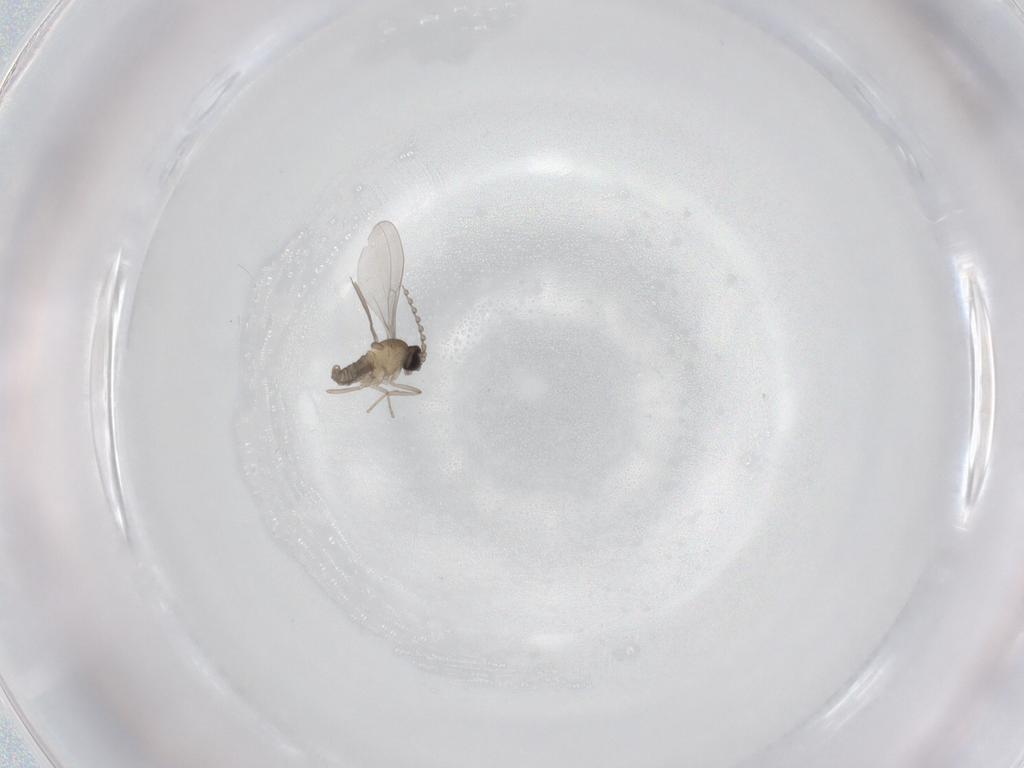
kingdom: Animalia
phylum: Arthropoda
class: Insecta
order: Diptera
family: Cecidomyiidae
